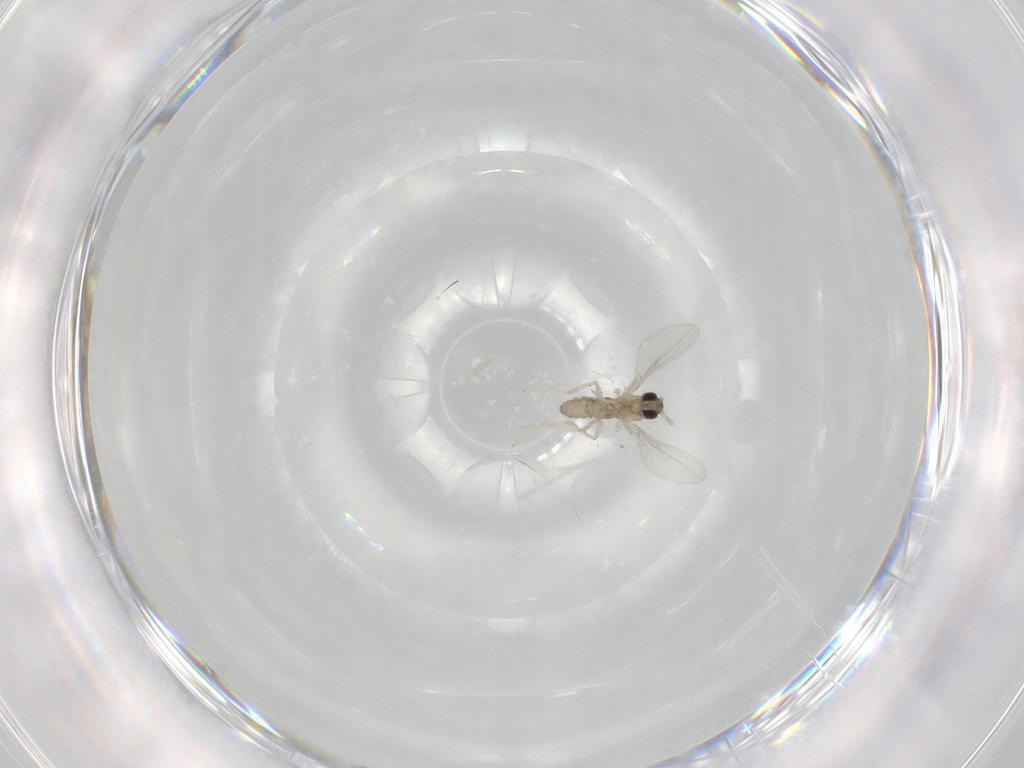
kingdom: Animalia
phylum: Arthropoda
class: Insecta
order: Diptera
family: Cecidomyiidae
